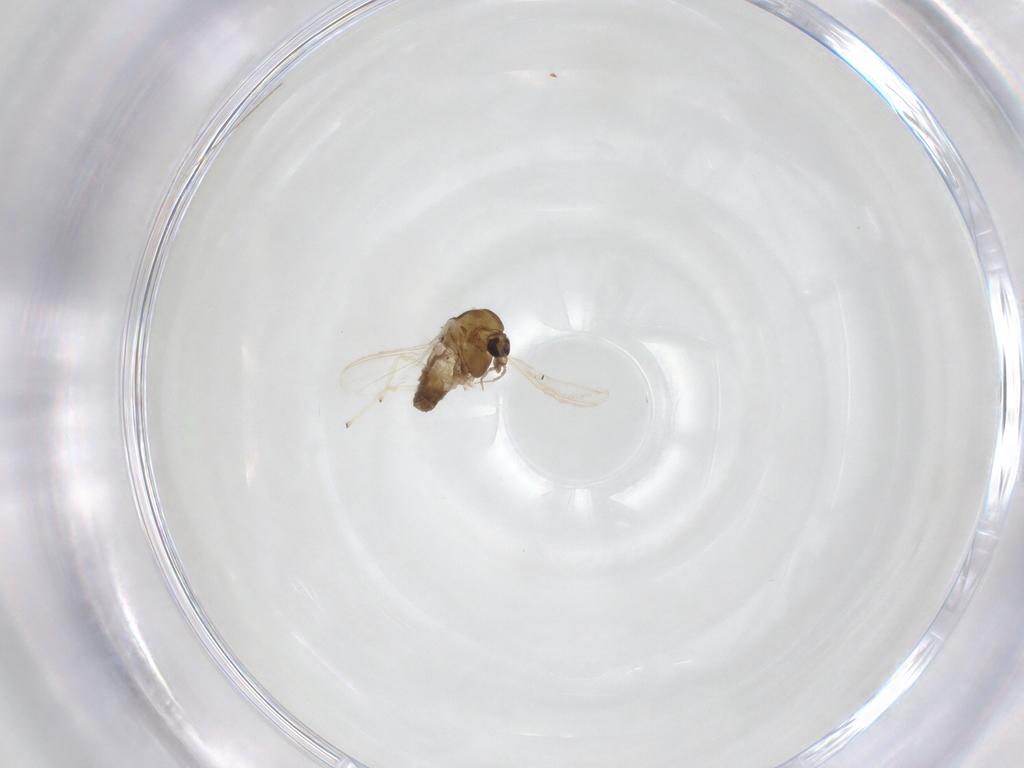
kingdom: Animalia
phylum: Arthropoda
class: Insecta
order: Diptera
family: Chironomidae
